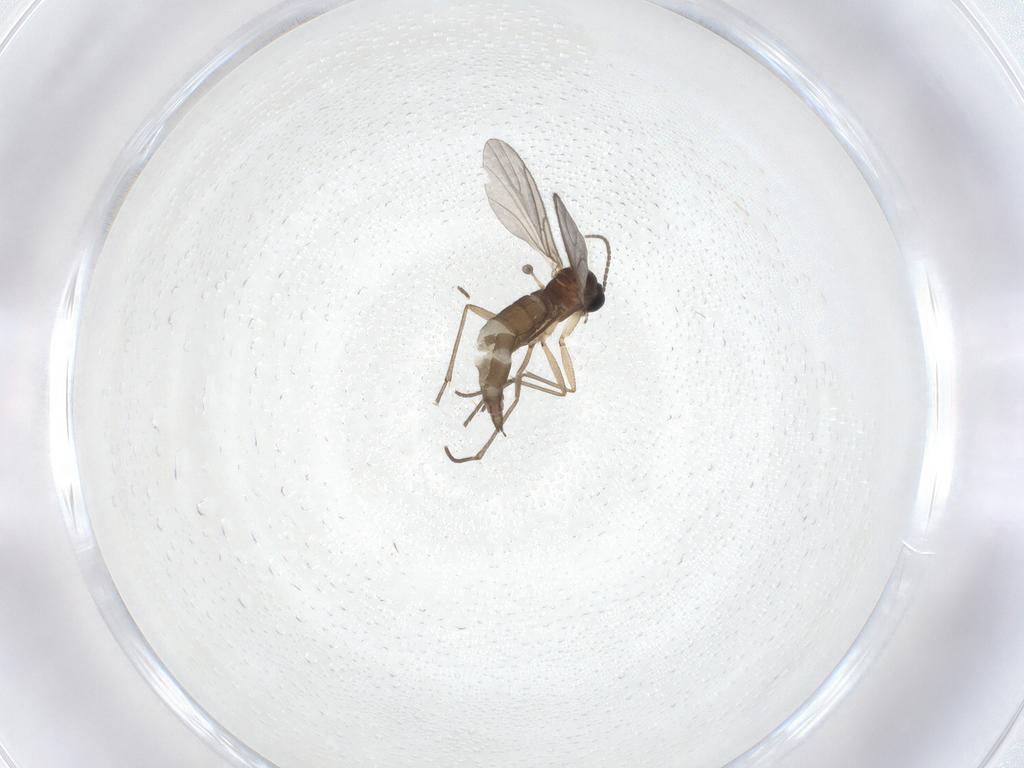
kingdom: Animalia
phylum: Arthropoda
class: Insecta
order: Diptera
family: Sciaridae
